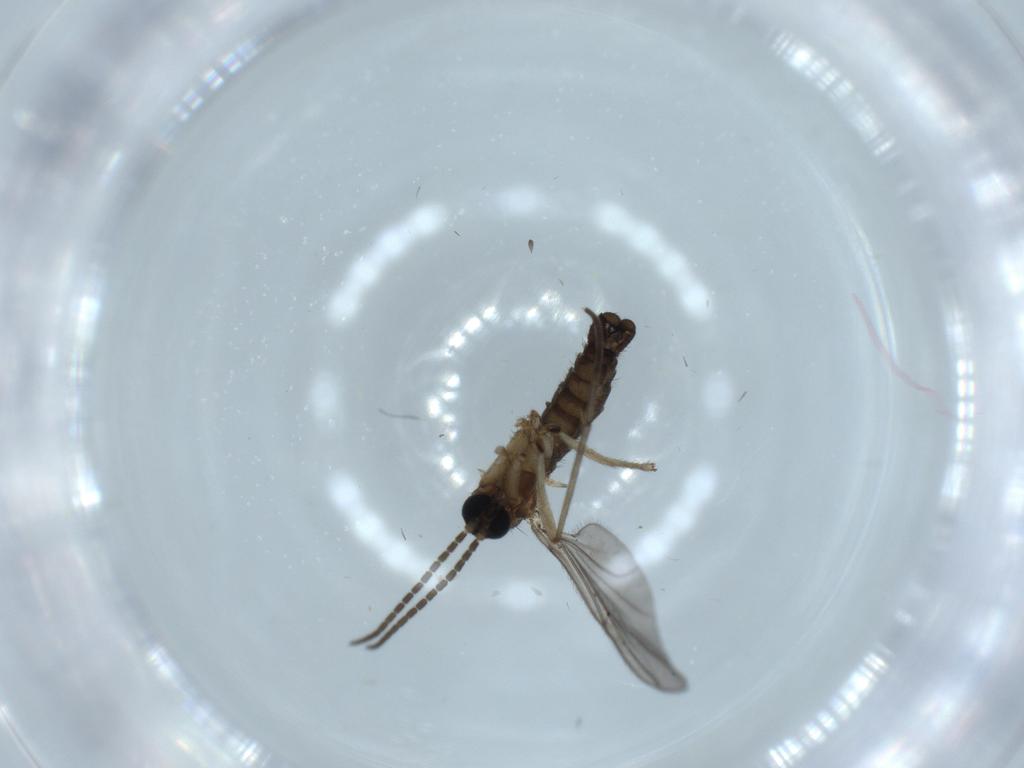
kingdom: Animalia
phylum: Arthropoda
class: Insecta
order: Diptera
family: Sciaridae
